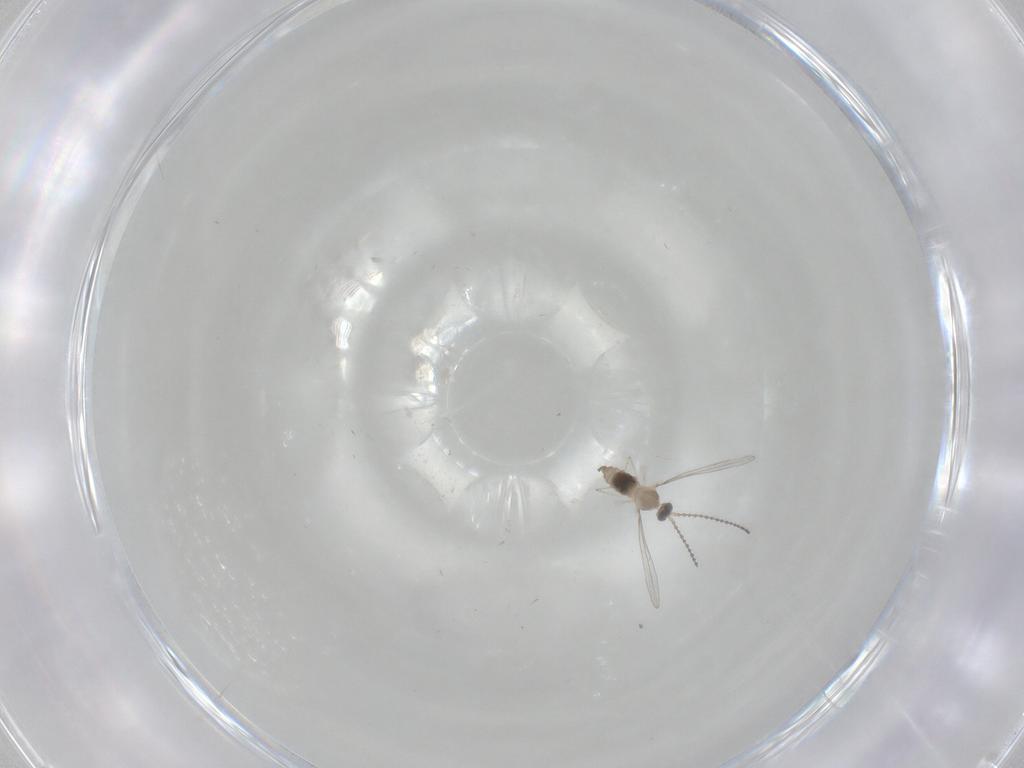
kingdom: Animalia
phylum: Arthropoda
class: Insecta
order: Diptera
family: Cecidomyiidae
